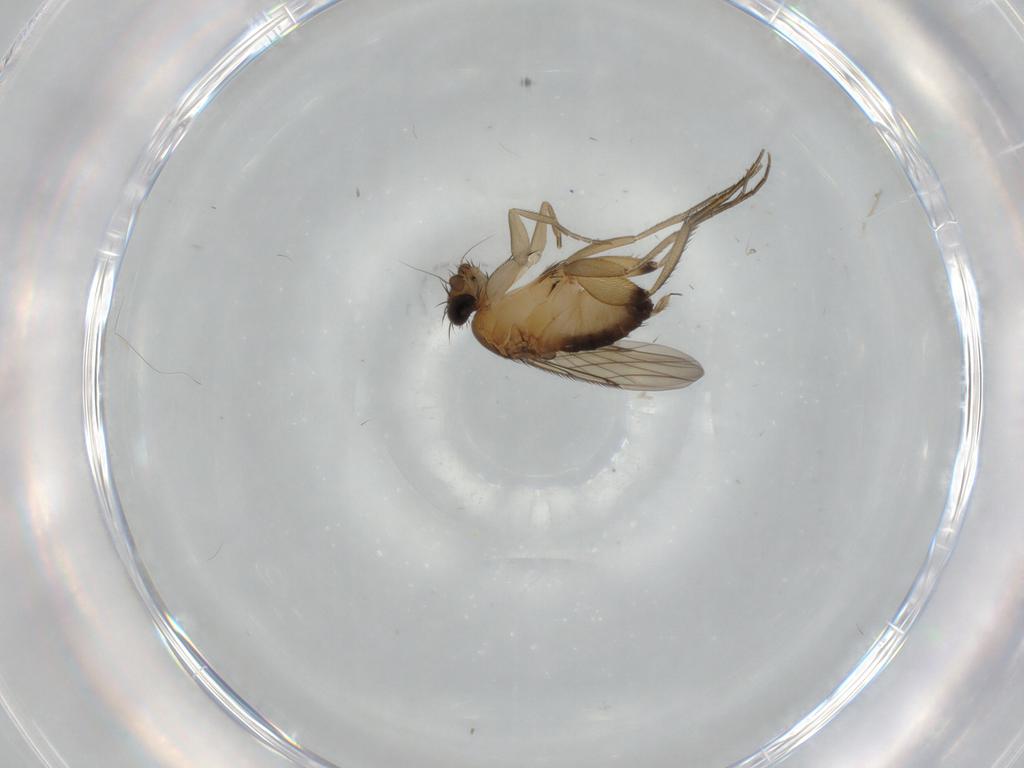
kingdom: Animalia
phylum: Arthropoda
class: Insecta
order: Diptera
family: Phoridae
